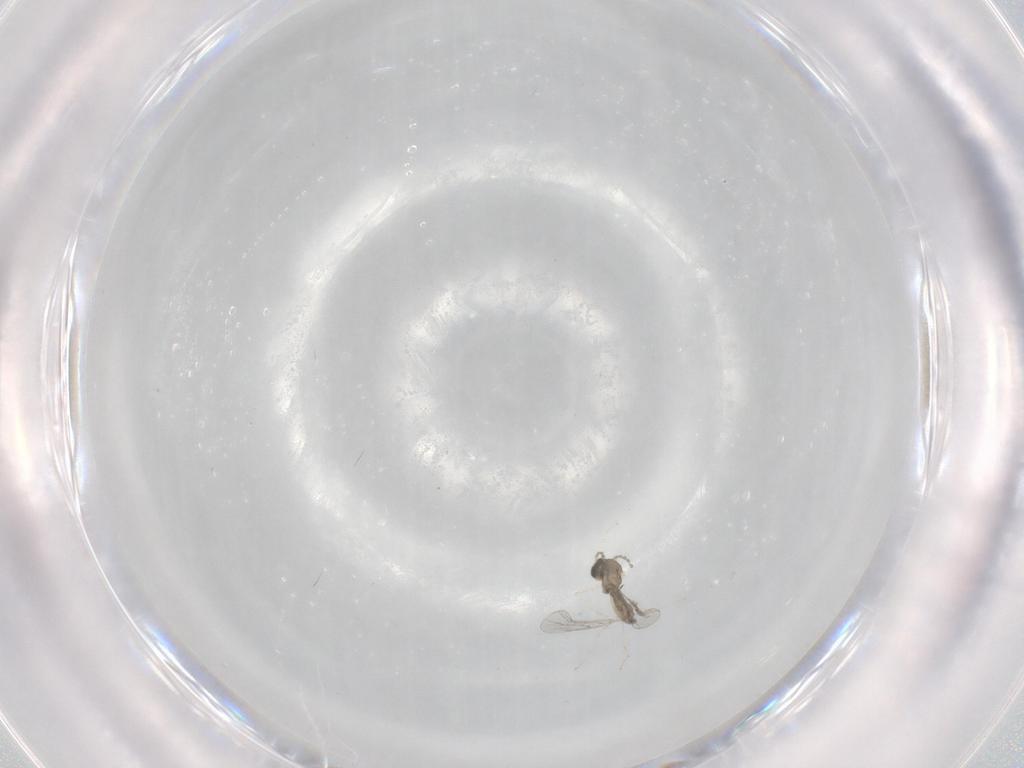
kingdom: Animalia
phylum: Arthropoda
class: Insecta
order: Diptera
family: Cecidomyiidae
